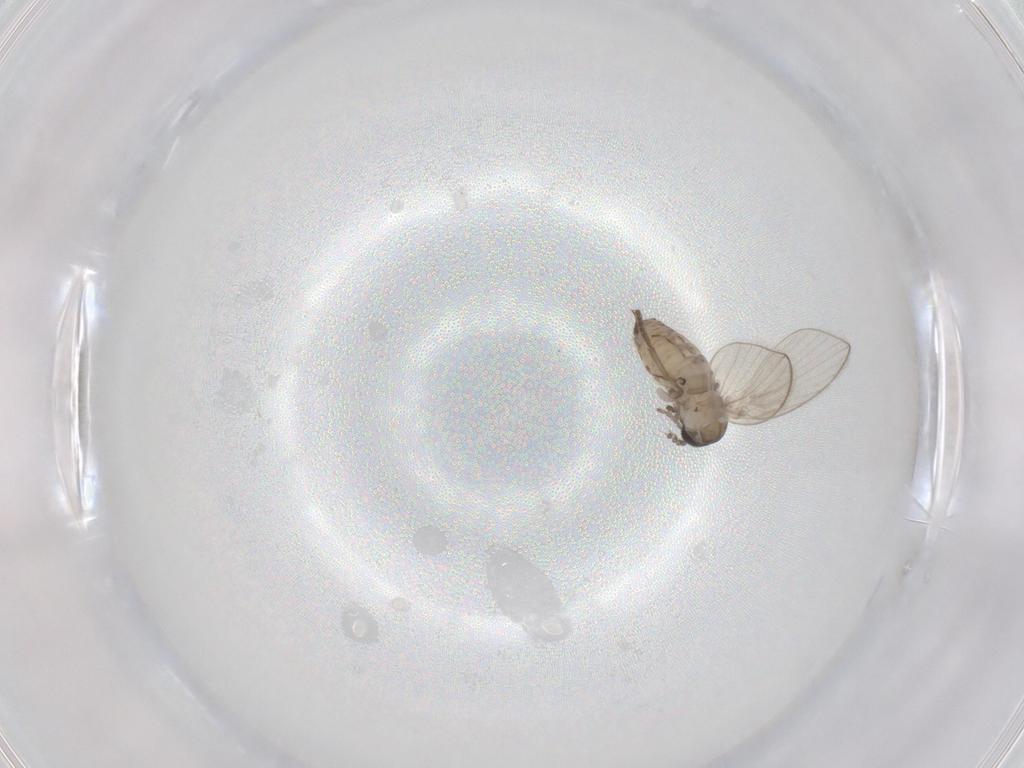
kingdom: Animalia
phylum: Arthropoda
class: Insecta
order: Diptera
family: Psychodidae
